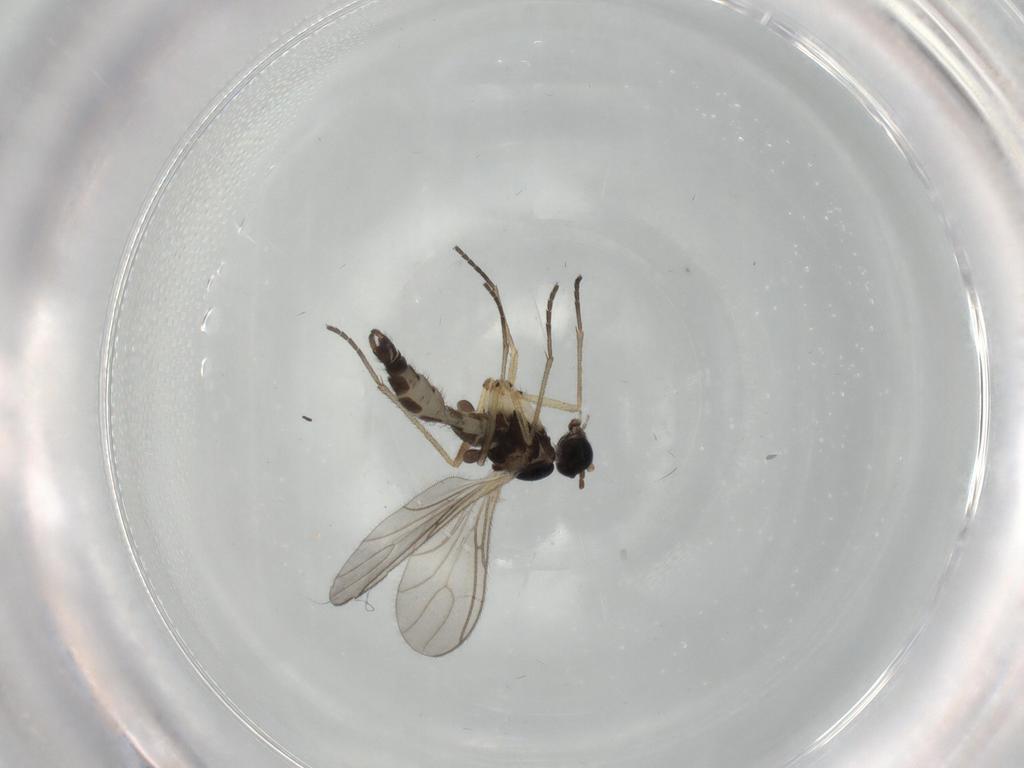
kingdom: Animalia
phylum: Arthropoda
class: Insecta
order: Diptera
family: Sciaridae
